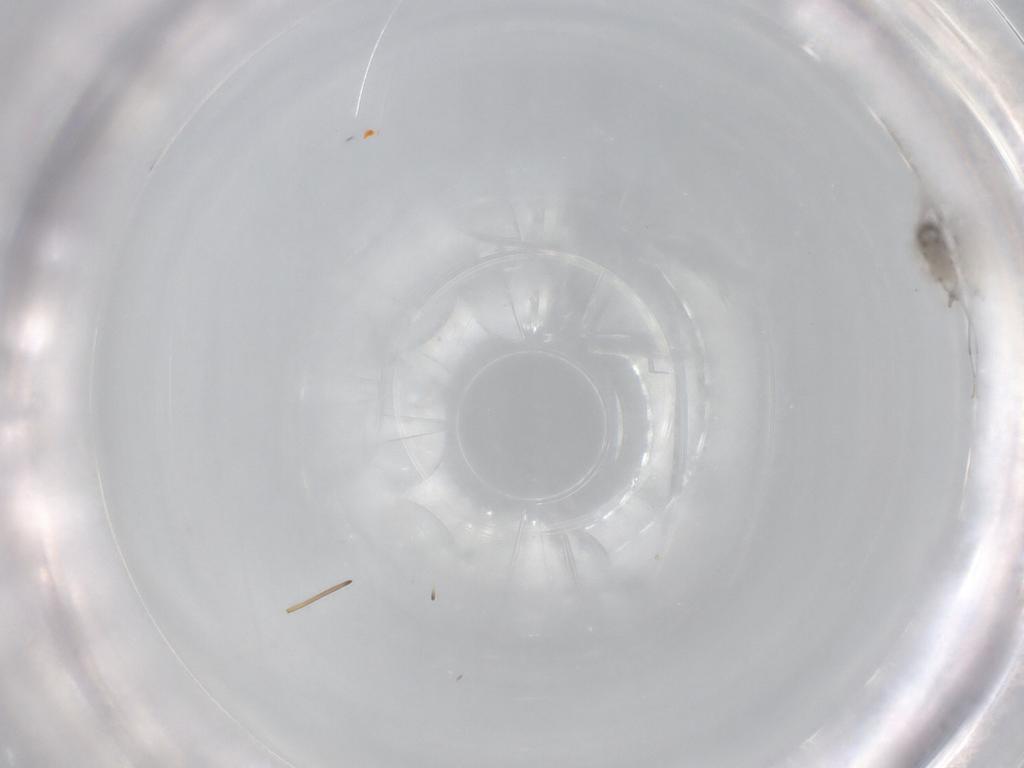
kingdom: Animalia
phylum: Arthropoda
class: Insecta
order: Diptera
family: Cecidomyiidae
